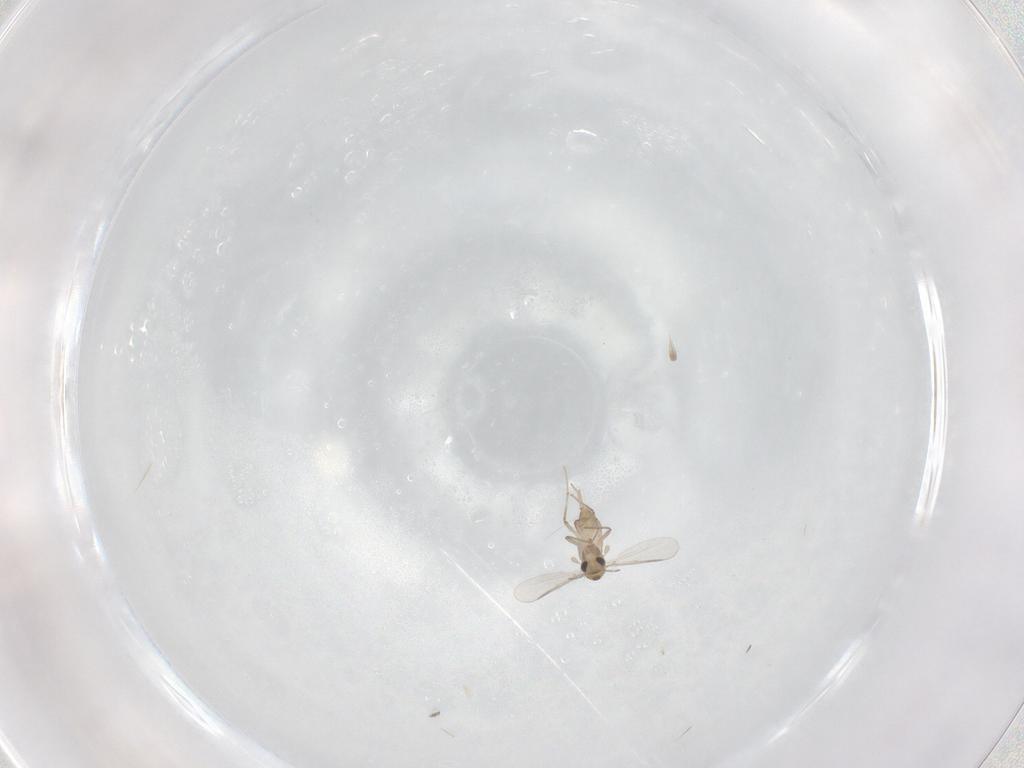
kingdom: Animalia
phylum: Arthropoda
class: Insecta
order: Diptera
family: Chironomidae
